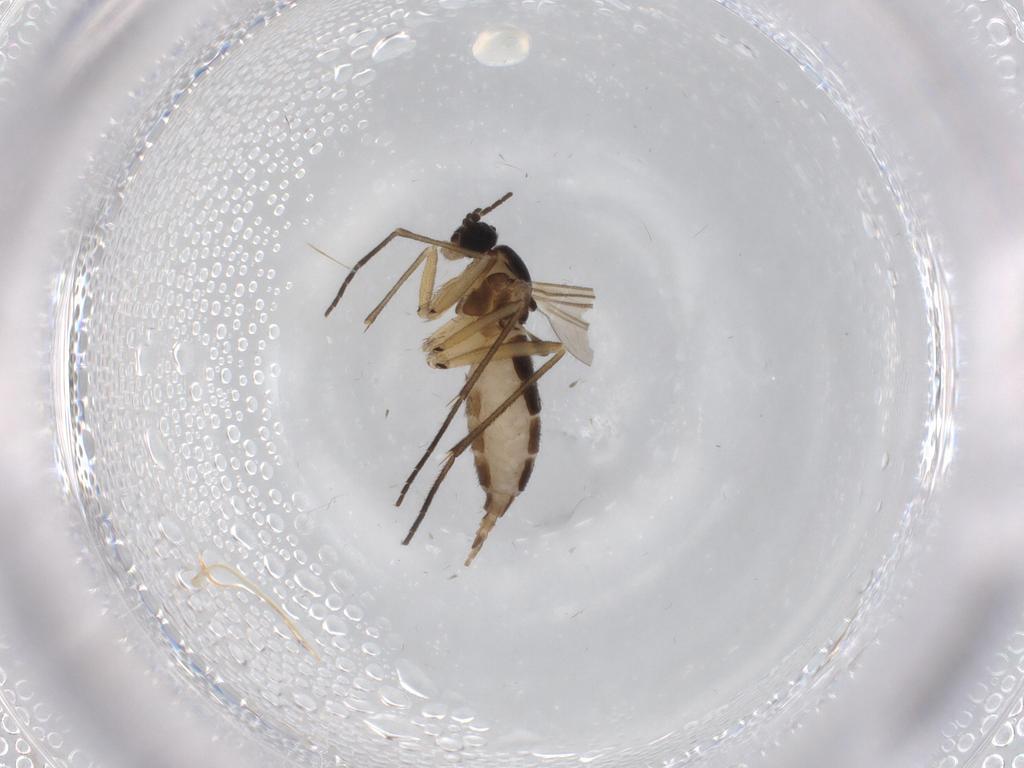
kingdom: Animalia
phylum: Arthropoda
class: Insecta
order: Diptera
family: Sciaridae
